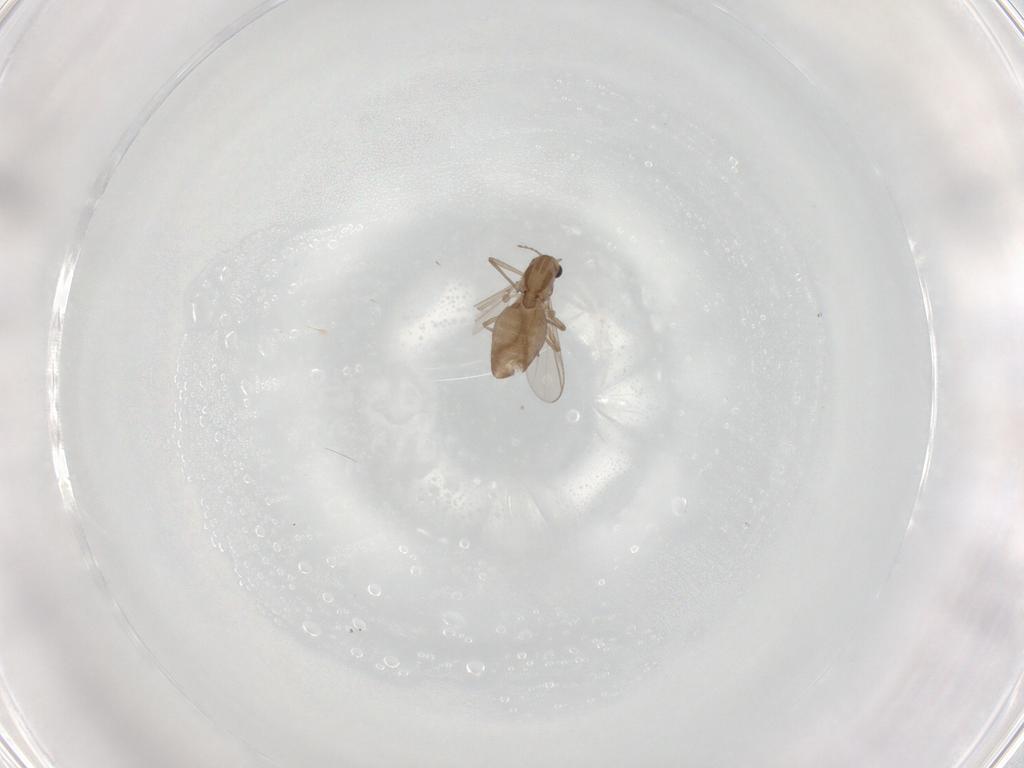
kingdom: Animalia
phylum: Arthropoda
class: Insecta
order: Diptera
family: Chironomidae
